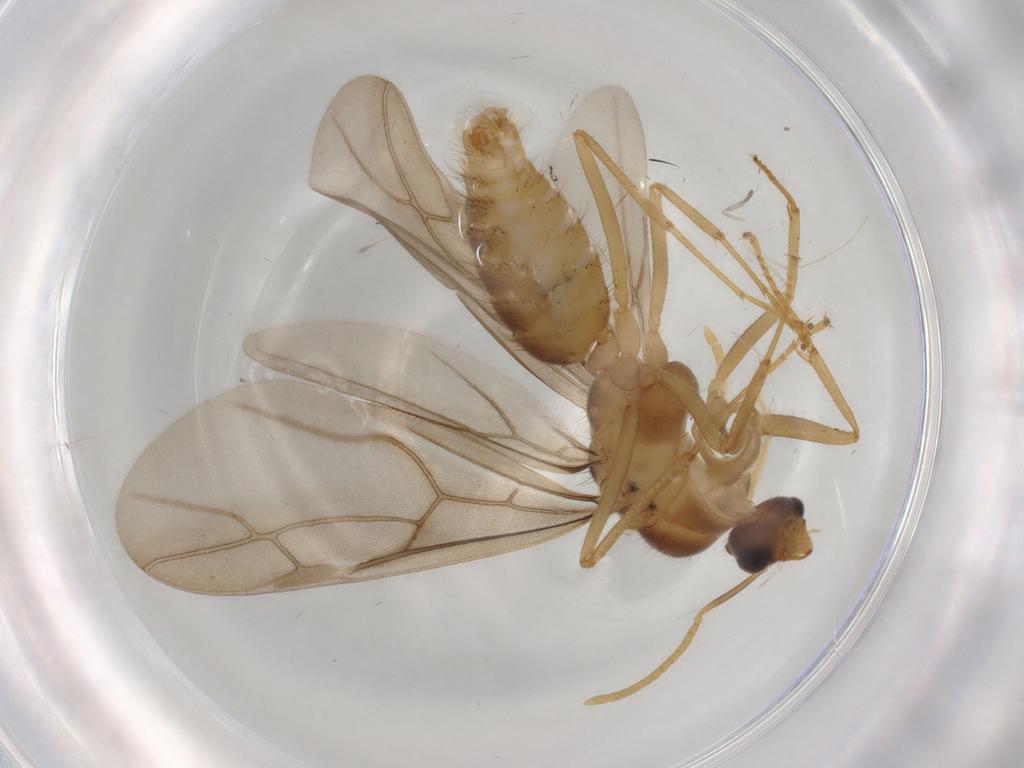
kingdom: Animalia
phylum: Arthropoda
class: Insecta
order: Hymenoptera
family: Formicidae
